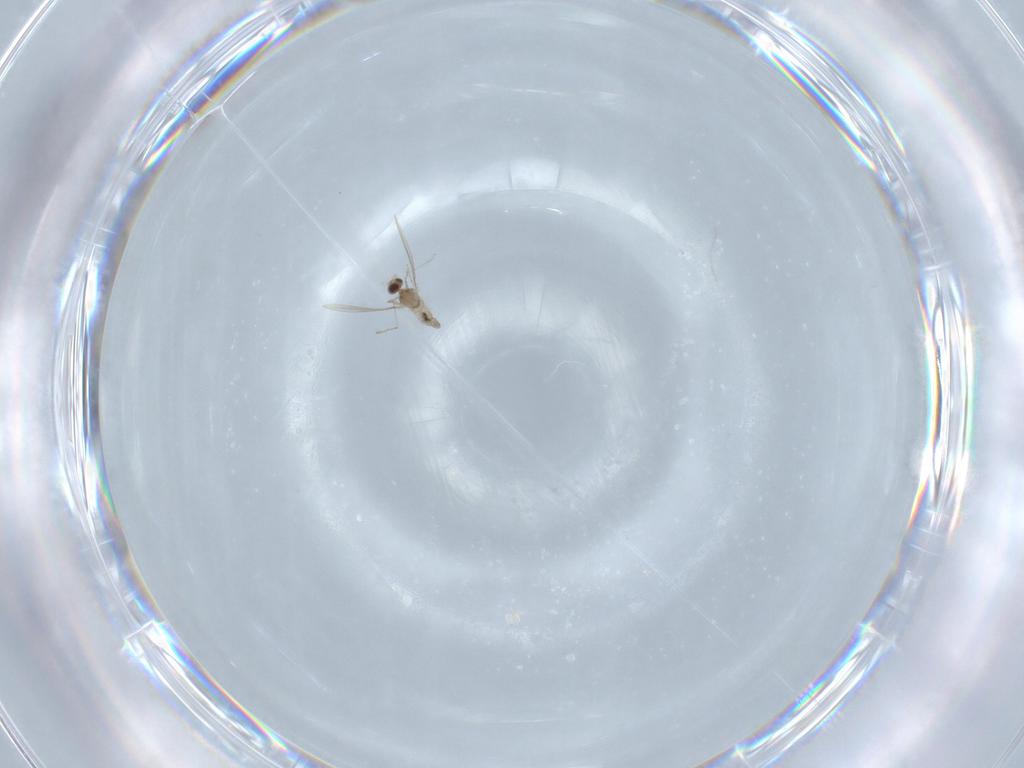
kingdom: Animalia
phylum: Arthropoda
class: Insecta
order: Diptera
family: Cecidomyiidae
